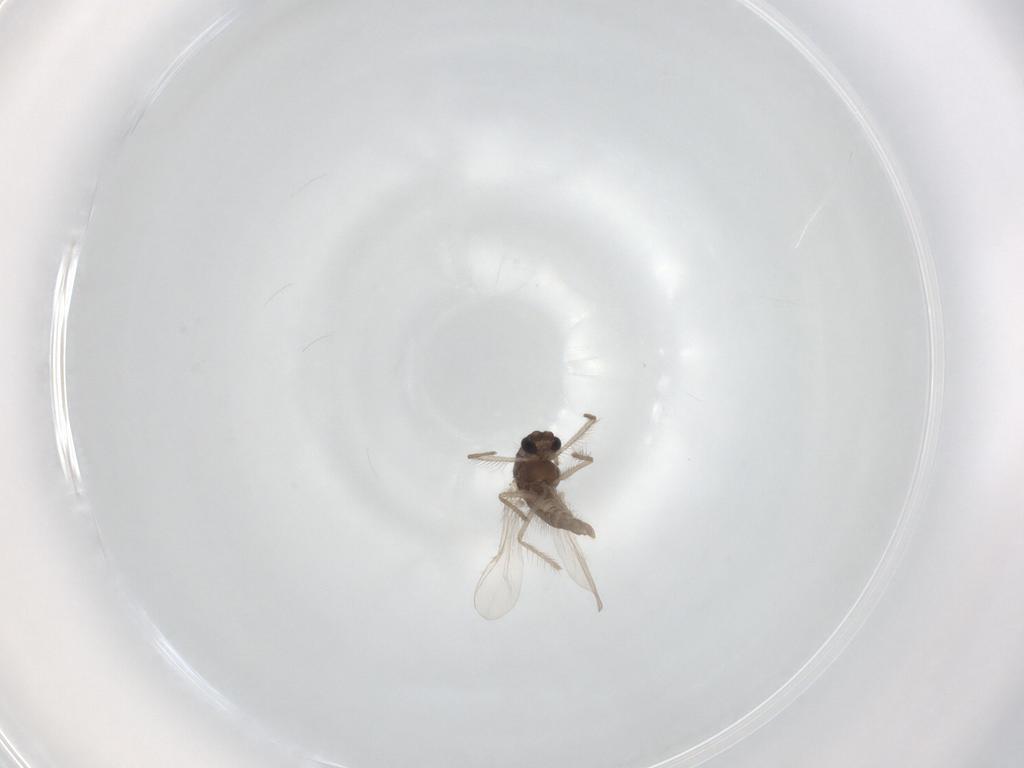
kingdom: Animalia
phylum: Arthropoda
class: Insecta
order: Diptera
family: Chironomidae
